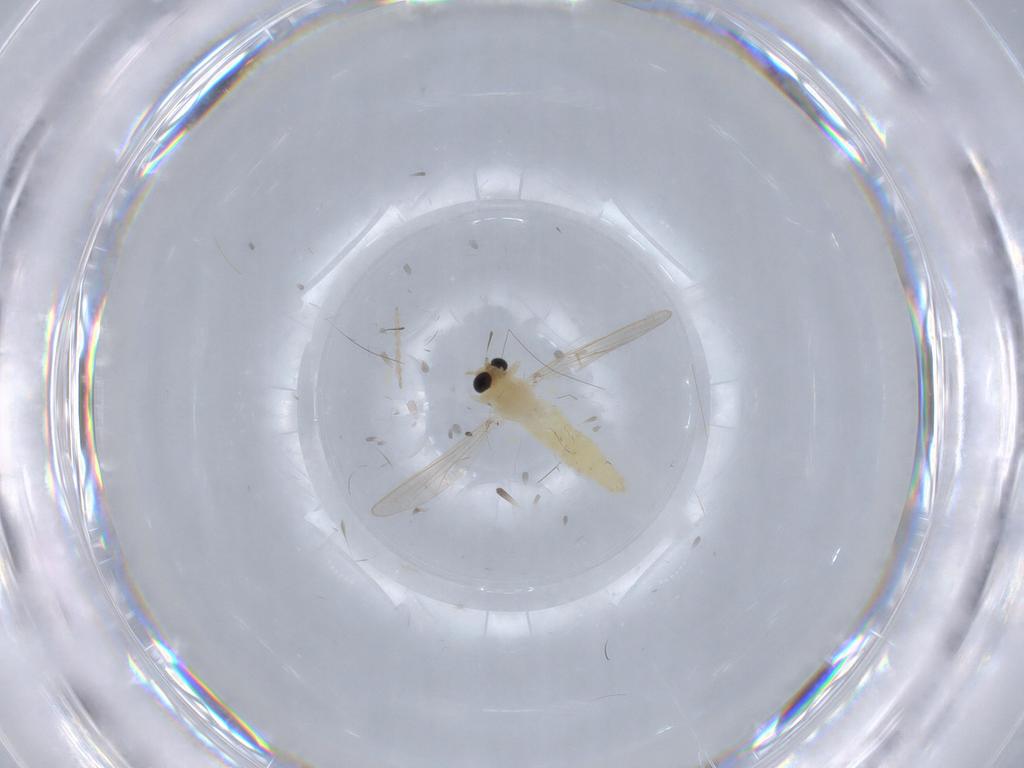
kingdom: Animalia
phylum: Arthropoda
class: Insecta
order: Diptera
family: Chironomidae
